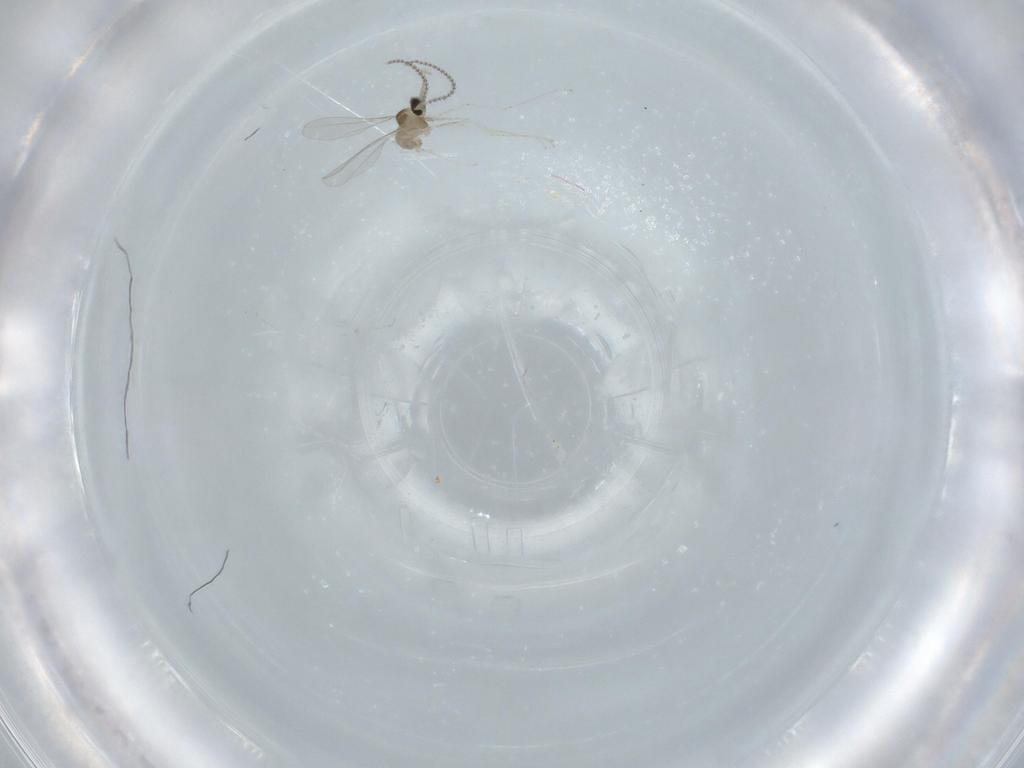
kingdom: Animalia
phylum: Arthropoda
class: Insecta
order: Diptera
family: Sciaridae
